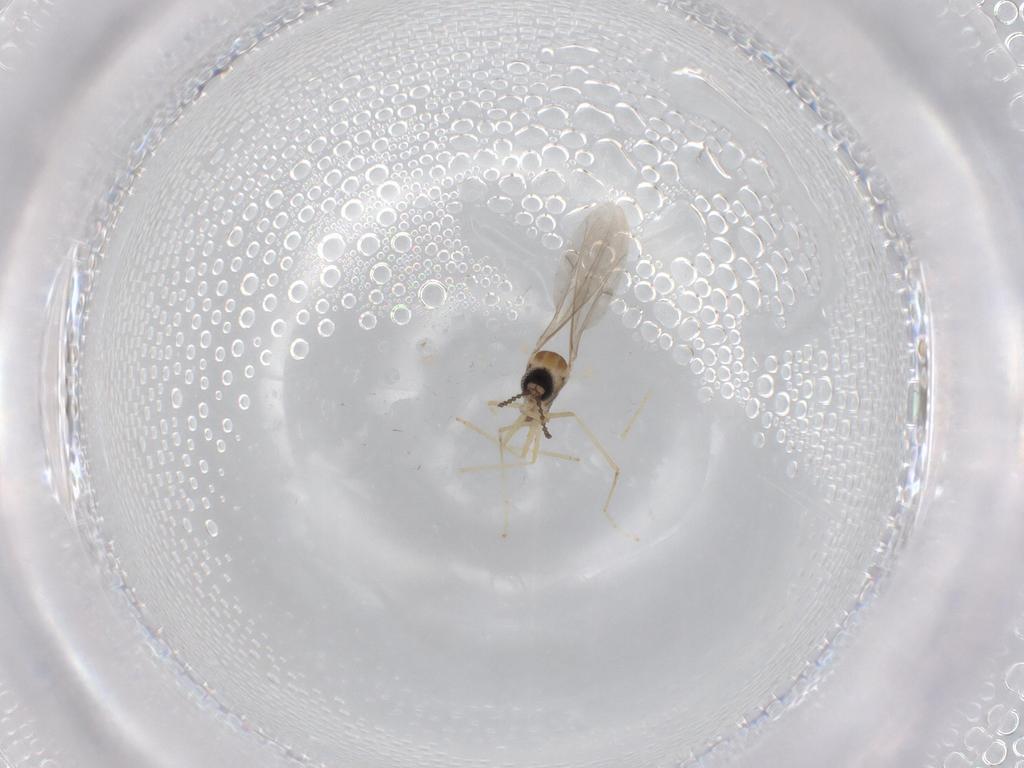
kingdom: Animalia
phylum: Arthropoda
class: Insecta
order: Diptera
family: Cecidomyiidae
